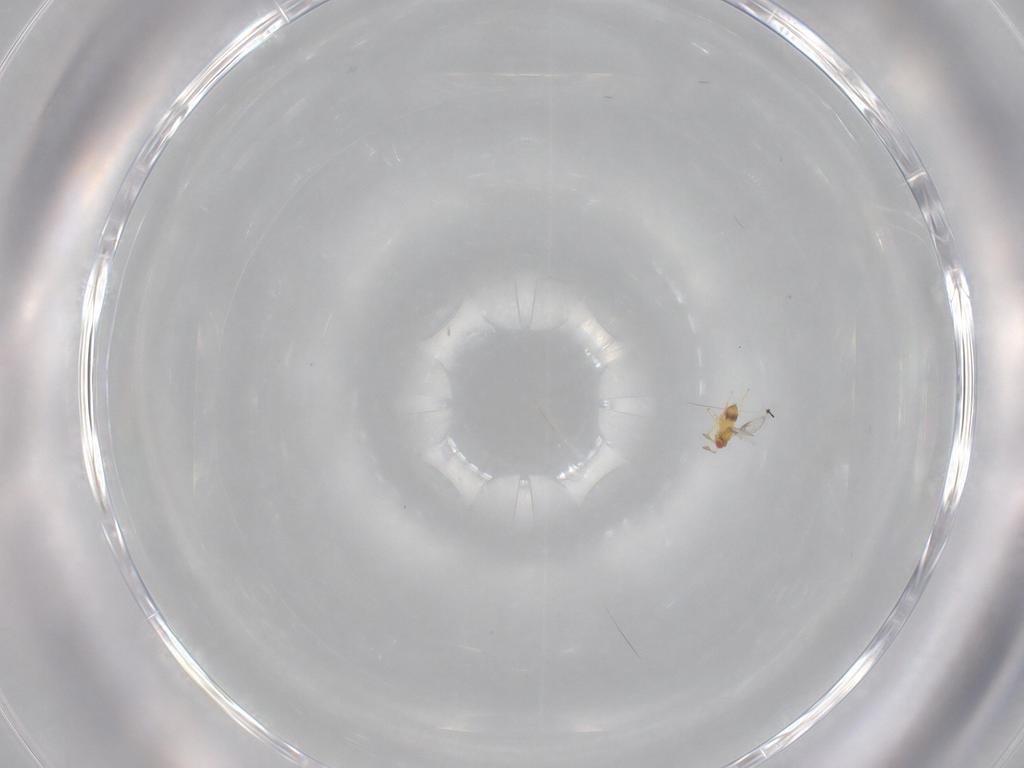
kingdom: Animalia
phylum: Arthropoda
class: Insecta
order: Hymenoptera
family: Trichogrammatidae
